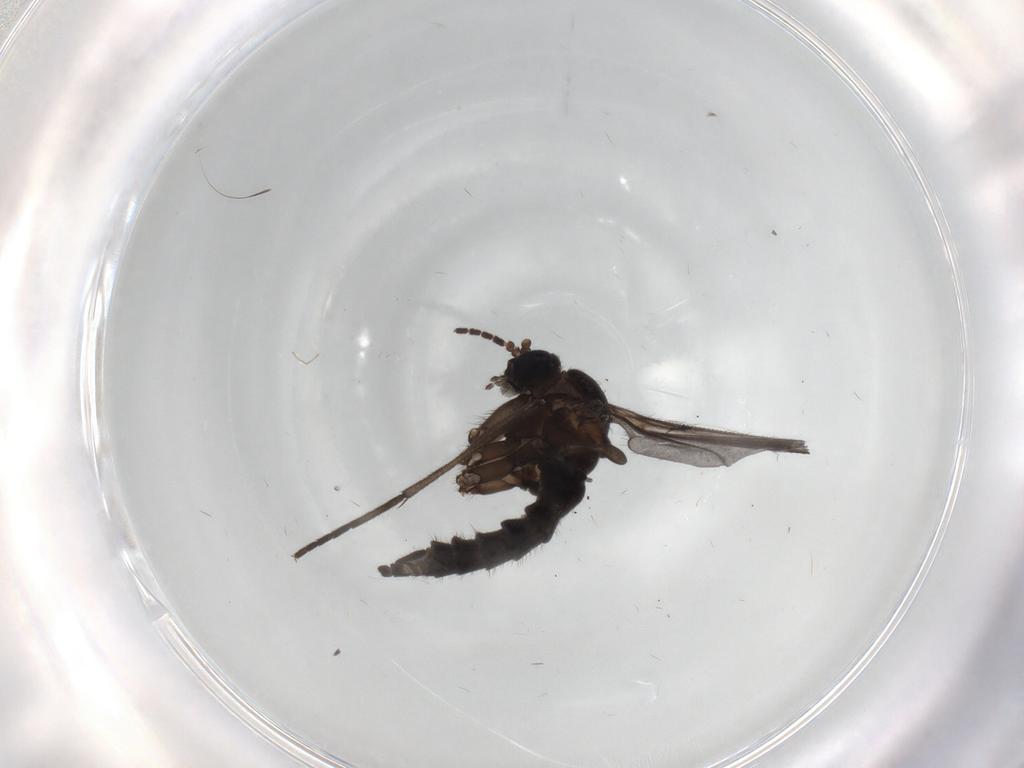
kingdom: Animalia
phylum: Arthropoda
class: Insecta
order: Diptera
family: Sciaridae
